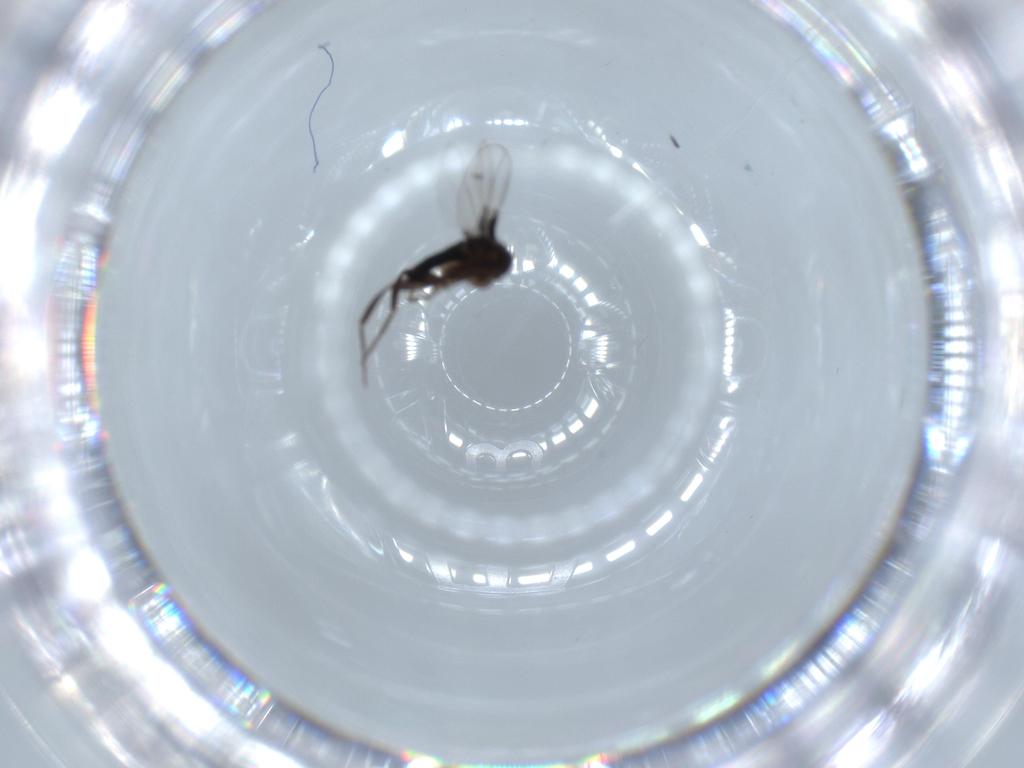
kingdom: Animalia
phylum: Arthropoda
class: Insecta
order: Diptera
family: Phoridae
